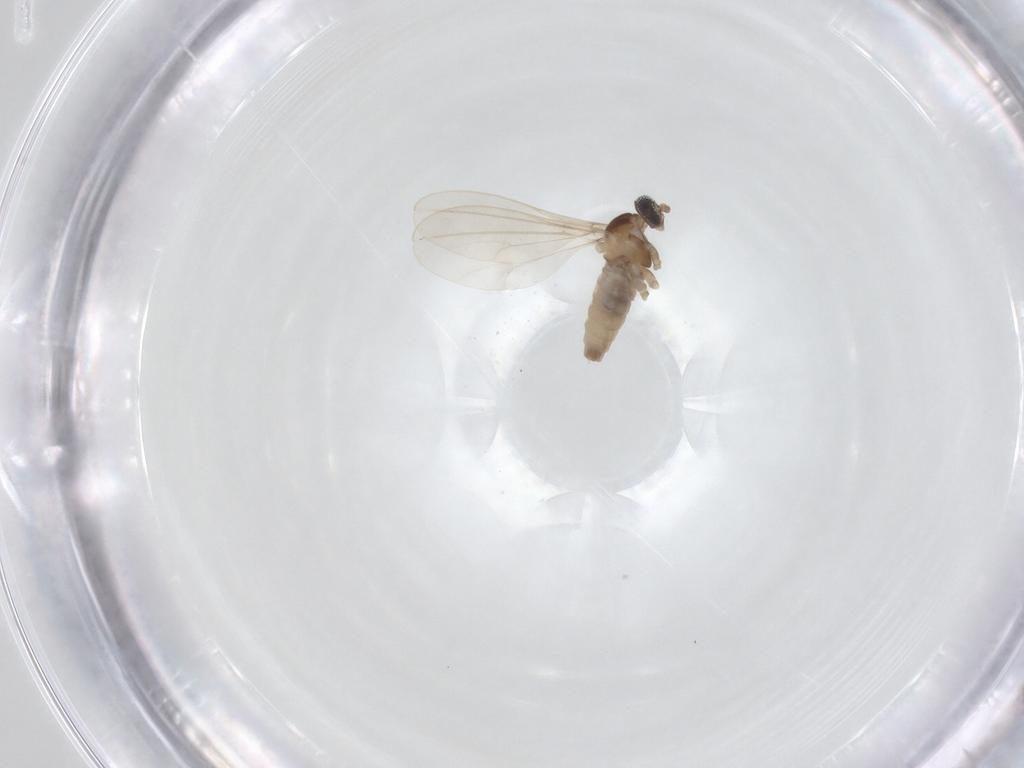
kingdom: Animalia
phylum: Arthropoda
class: Insecta
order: Diptera
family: Cecidomyiidae
